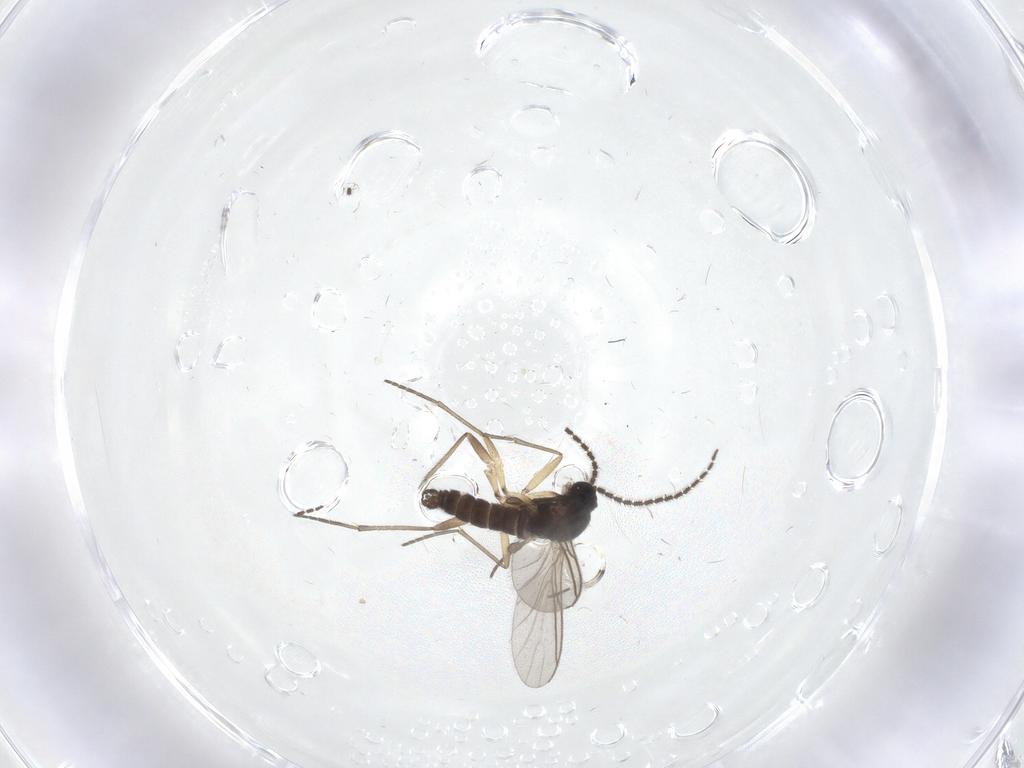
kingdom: Animalia
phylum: Arthropoda
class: Insecta
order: Diptera
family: Sciaridae
